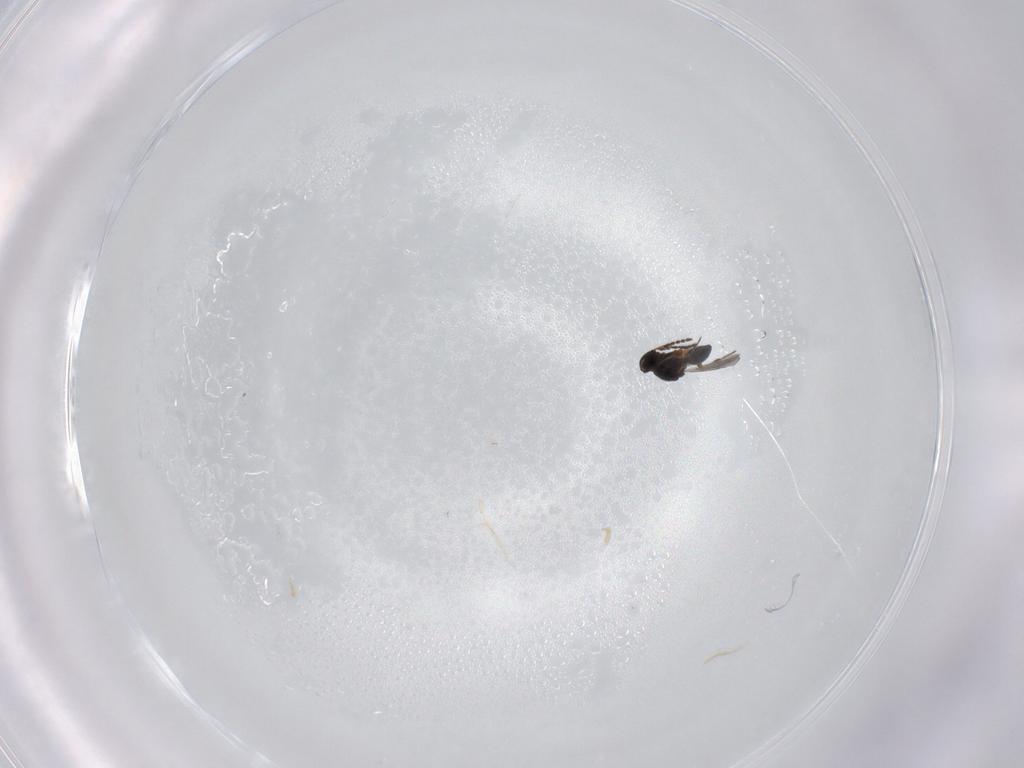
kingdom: Animalia
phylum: Arthropoda
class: Insecta
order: Hymenoptera
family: Platygastridae
